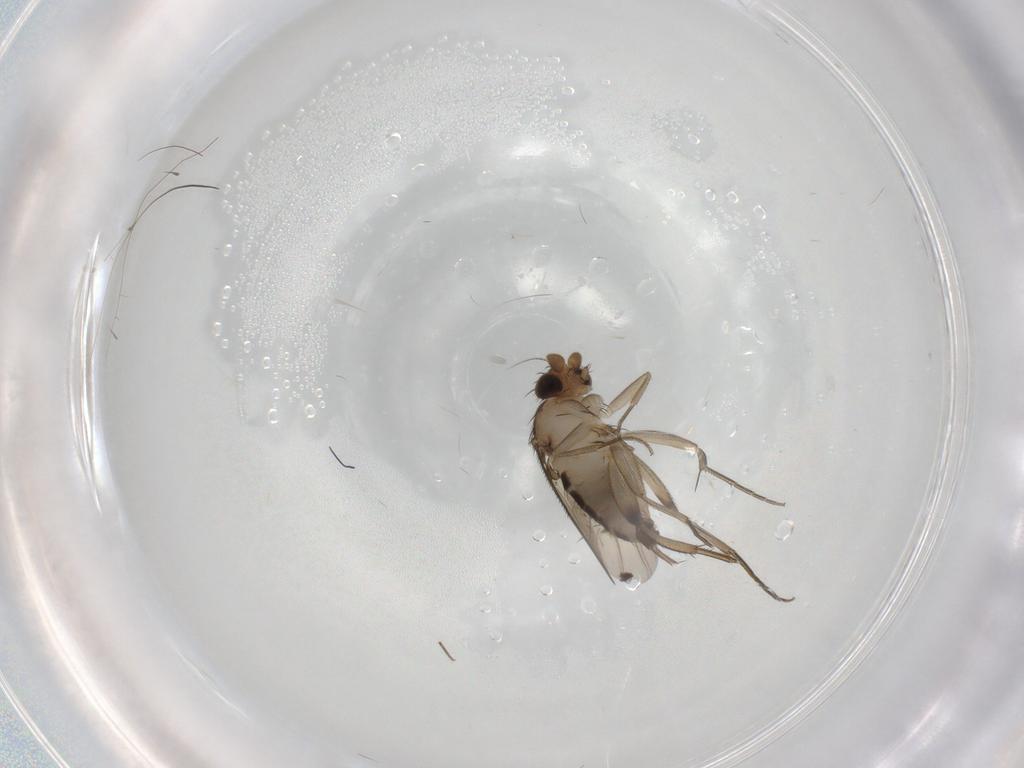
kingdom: Animalia
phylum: Arthropoda
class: Insecta
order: Diptera
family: Phoridae
